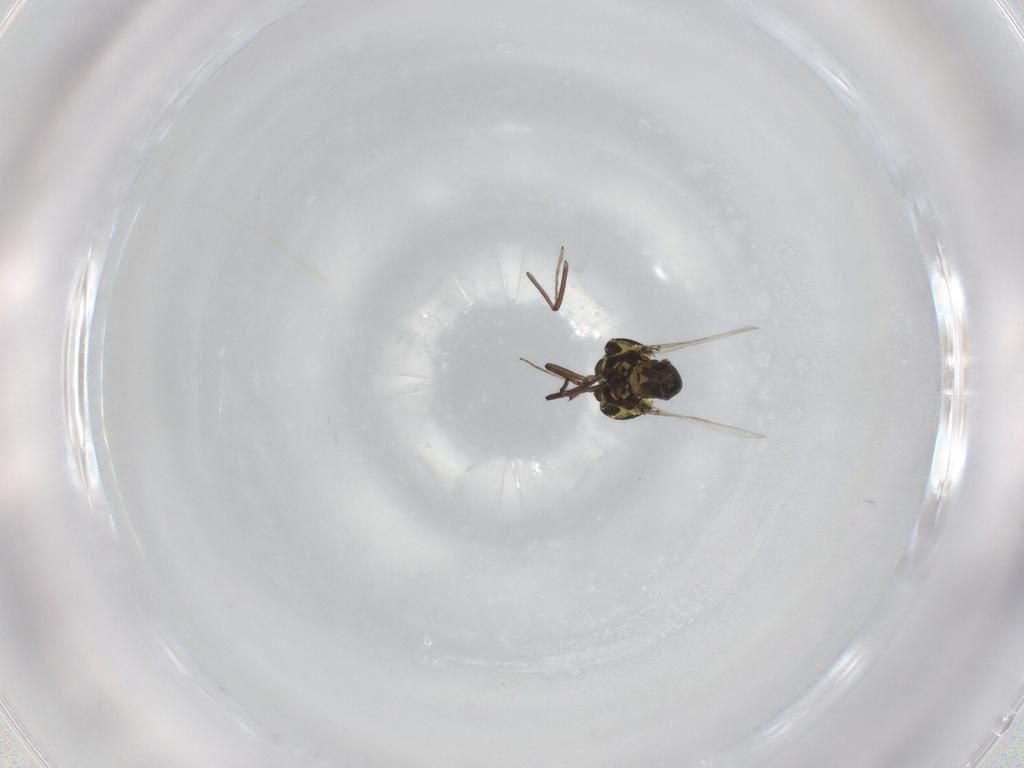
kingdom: Animalia
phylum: Arthropoda
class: Insecta
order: Diptera
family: Ceratopogonidae
